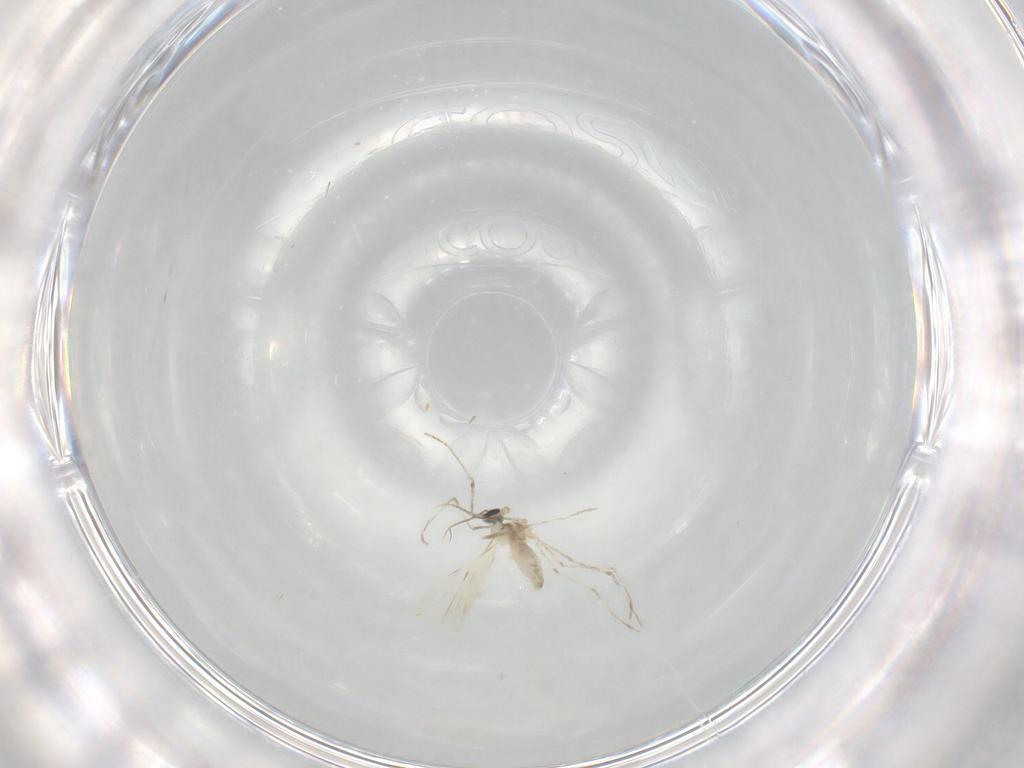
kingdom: Animalia
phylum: Arthropoda
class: Insecta
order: Diptera
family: Cecidomyiidae
